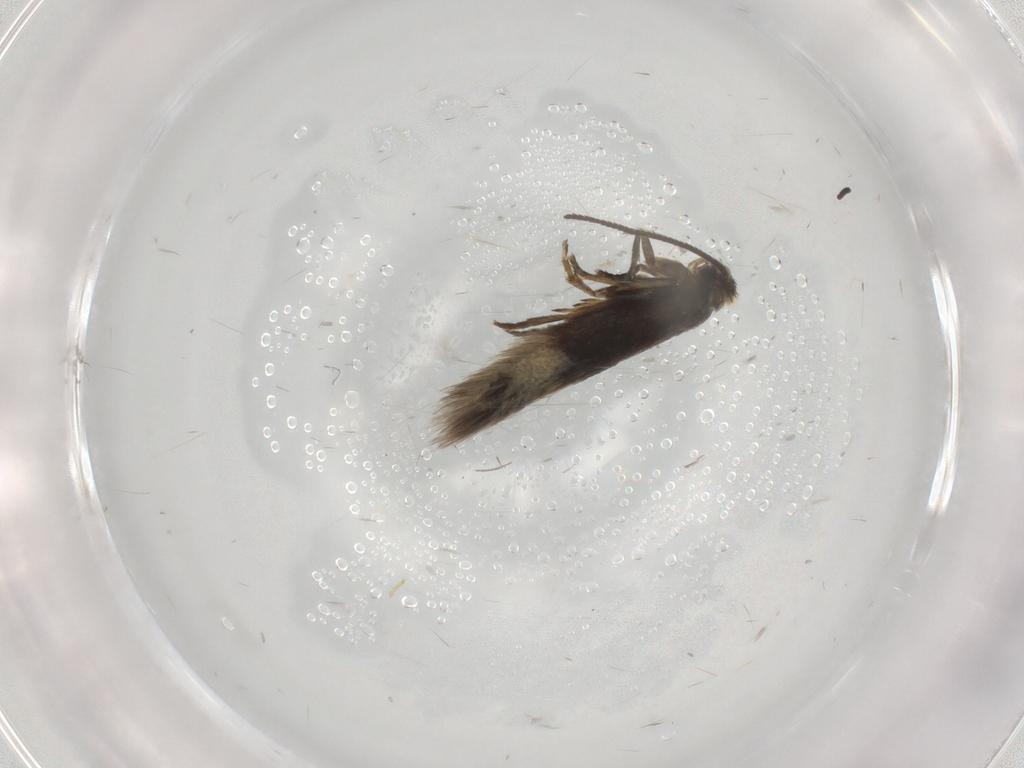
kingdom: Animalia
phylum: Arthropoda
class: Insecta
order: Lepidoptera
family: Nepticulidae
